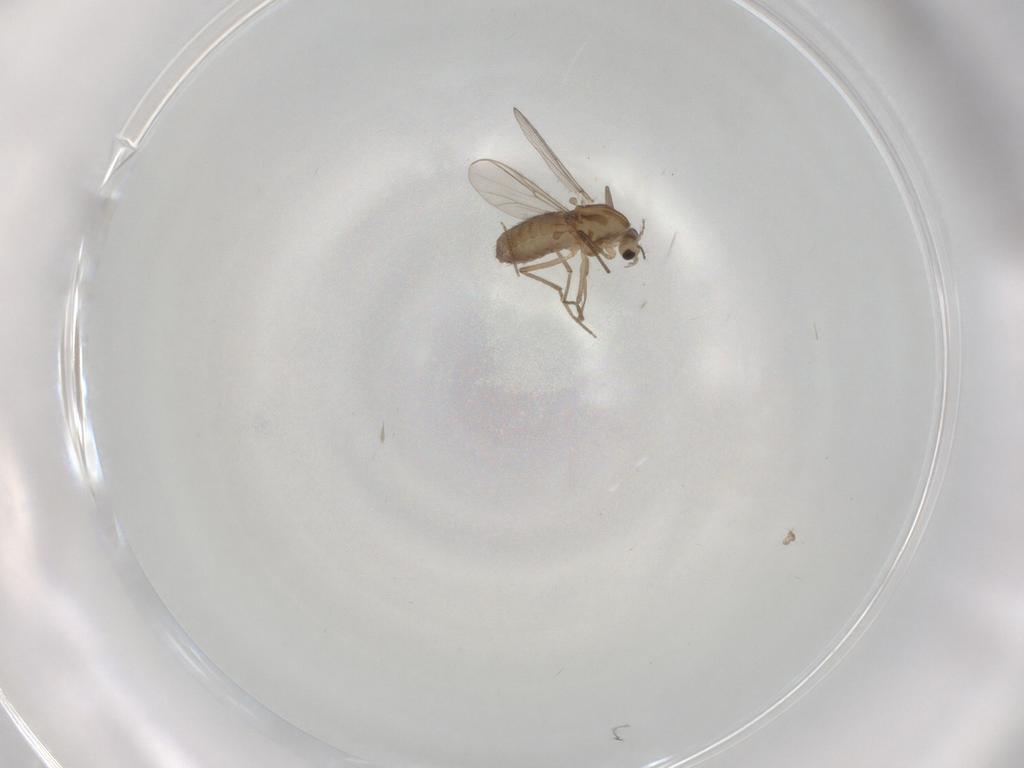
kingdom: Animalia
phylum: Arthropoda
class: Insecta
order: Diptera
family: Chironomidae
